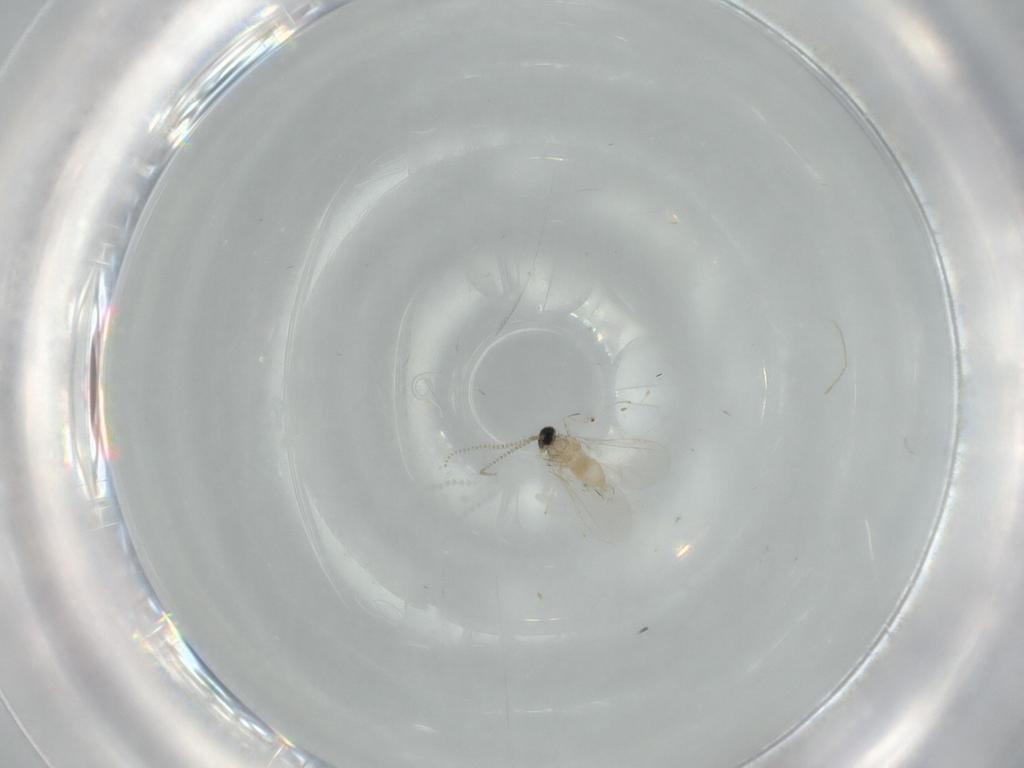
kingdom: Animalia
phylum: Arthropoda
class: Insecta
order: Diptera
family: Cecidomyiidae
